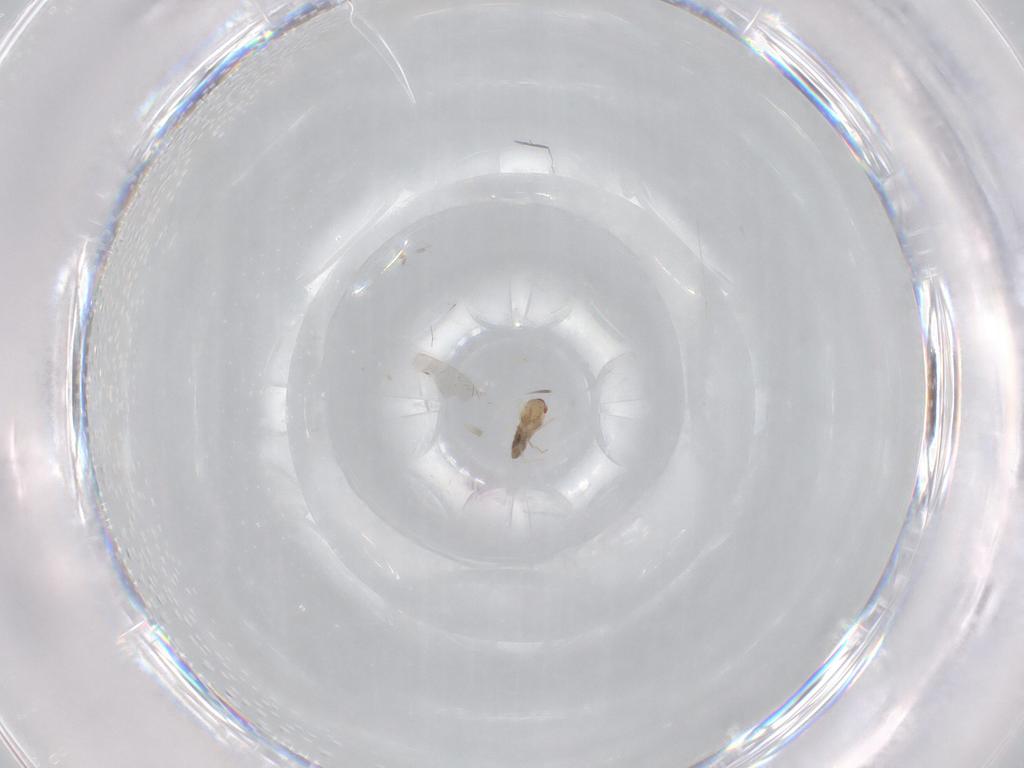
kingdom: Animalia
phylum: Arthropoda
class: Insecta
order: Diptera
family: Cecidomyiidae
